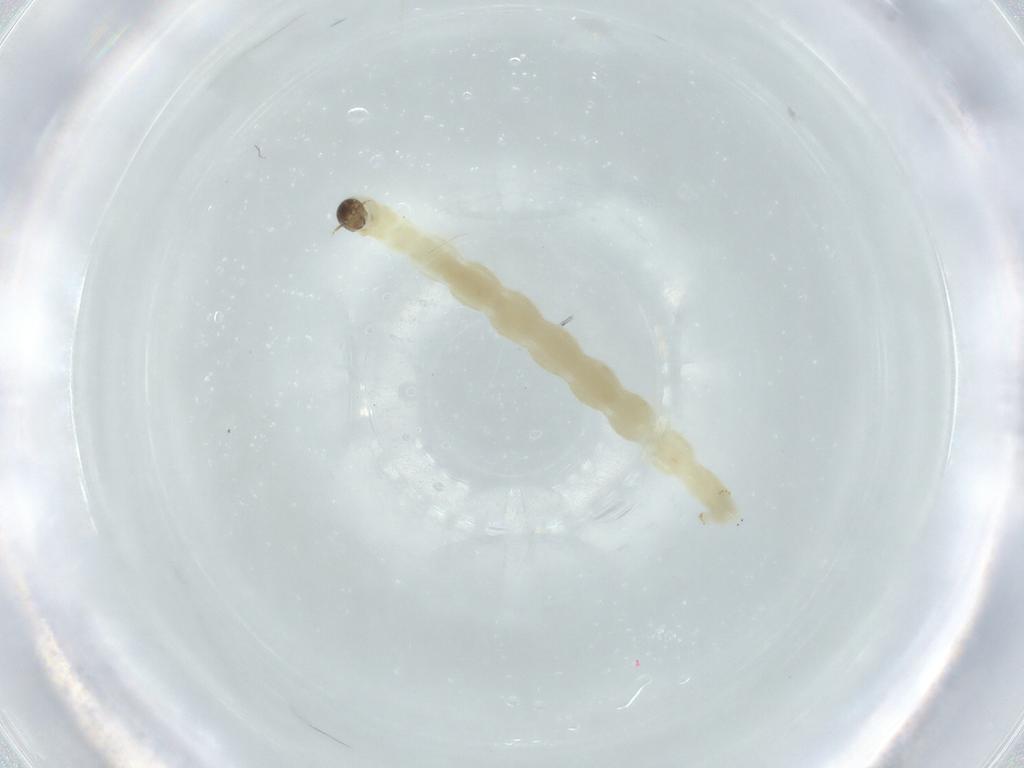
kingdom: Animalia
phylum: Arthropoda
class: Insecta
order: Diptera
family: Chironomidae
